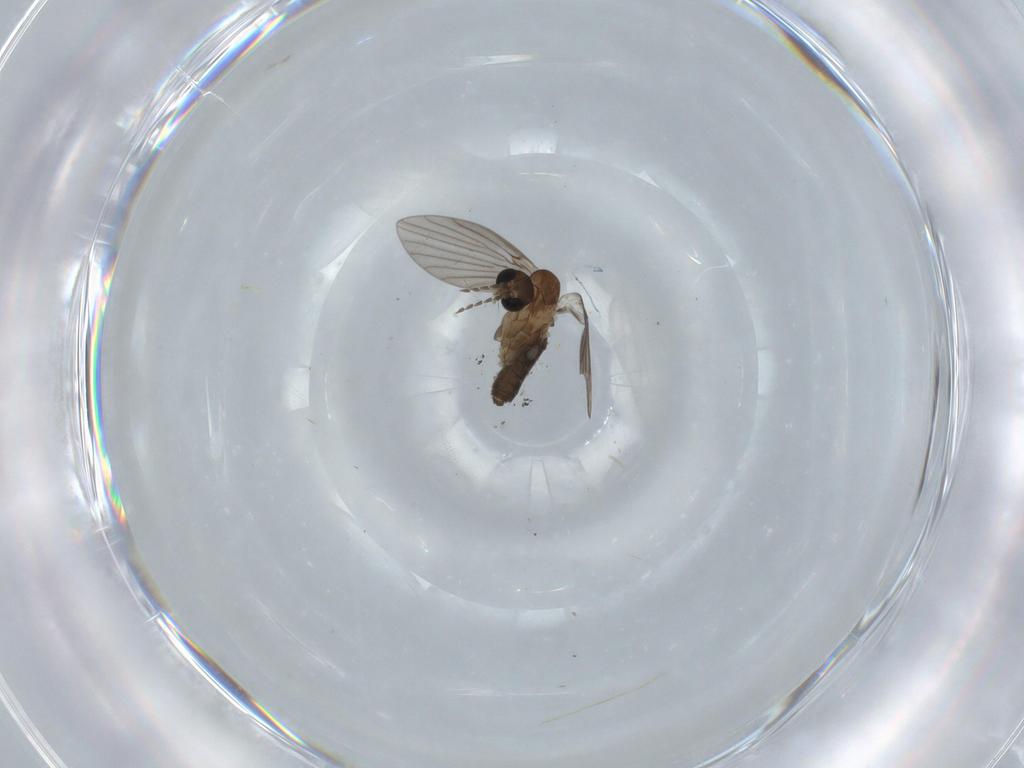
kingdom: Animalia
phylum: Arthropoda
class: Insecta
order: Diptera
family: Psychodidae
